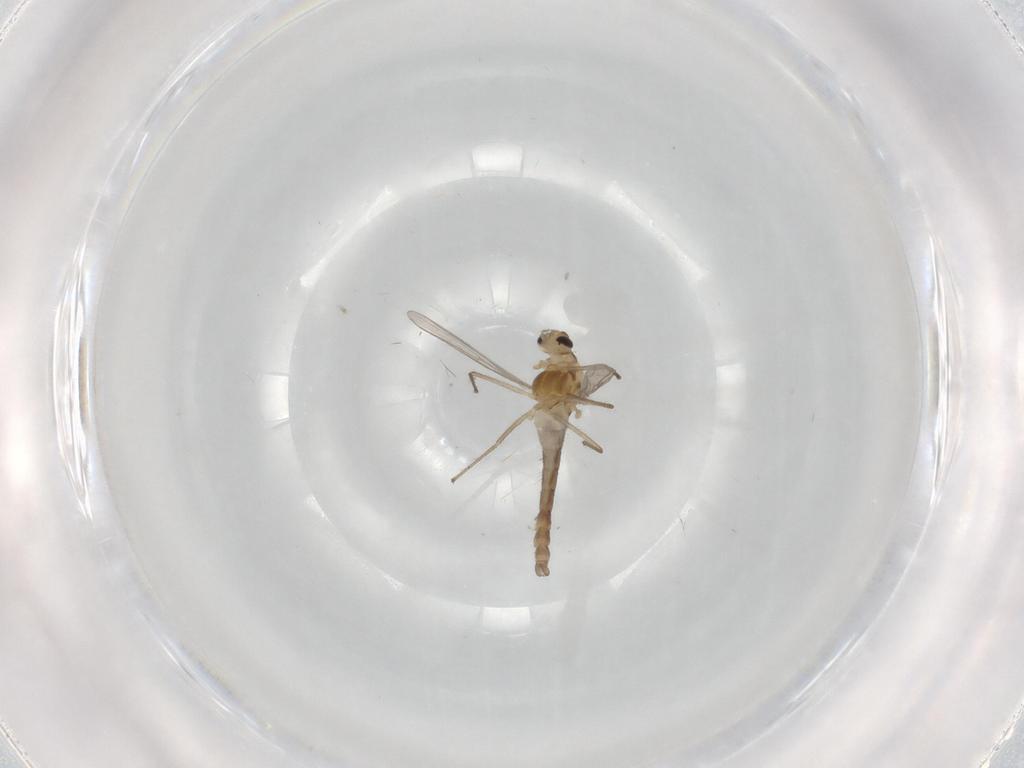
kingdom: Animalia
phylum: Arthropoda
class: Insecta
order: Diptera
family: Chironomidae
